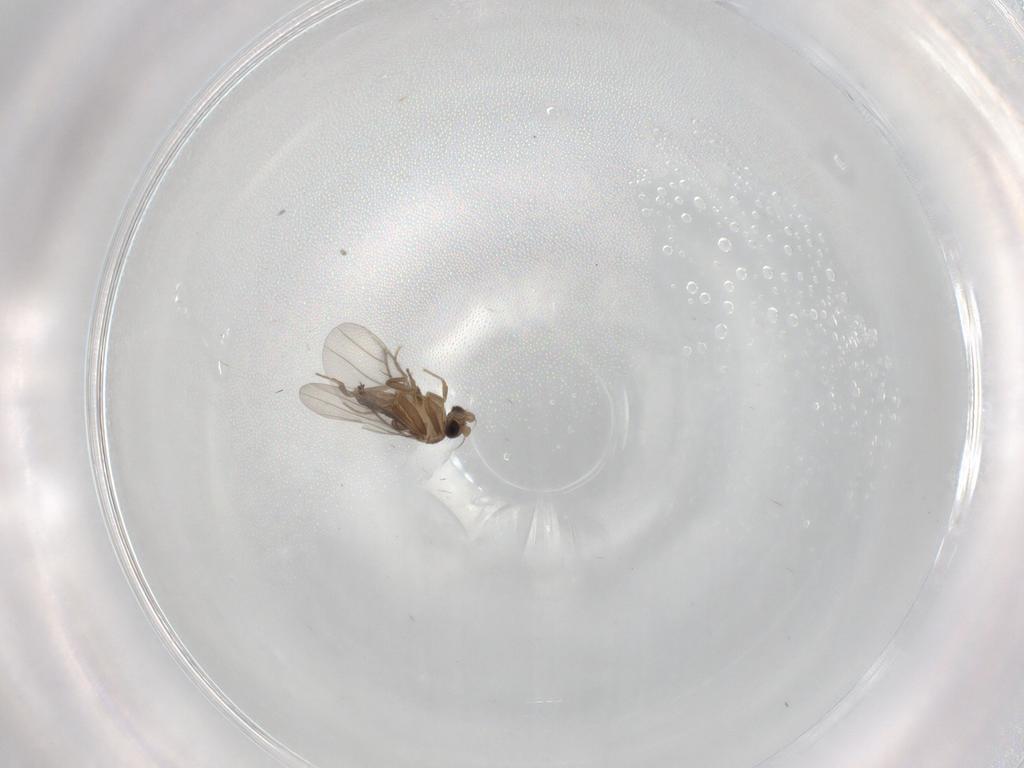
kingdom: Animalia
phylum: Arthropoda
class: Insecta
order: Diptera
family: Cecidomyiidae
